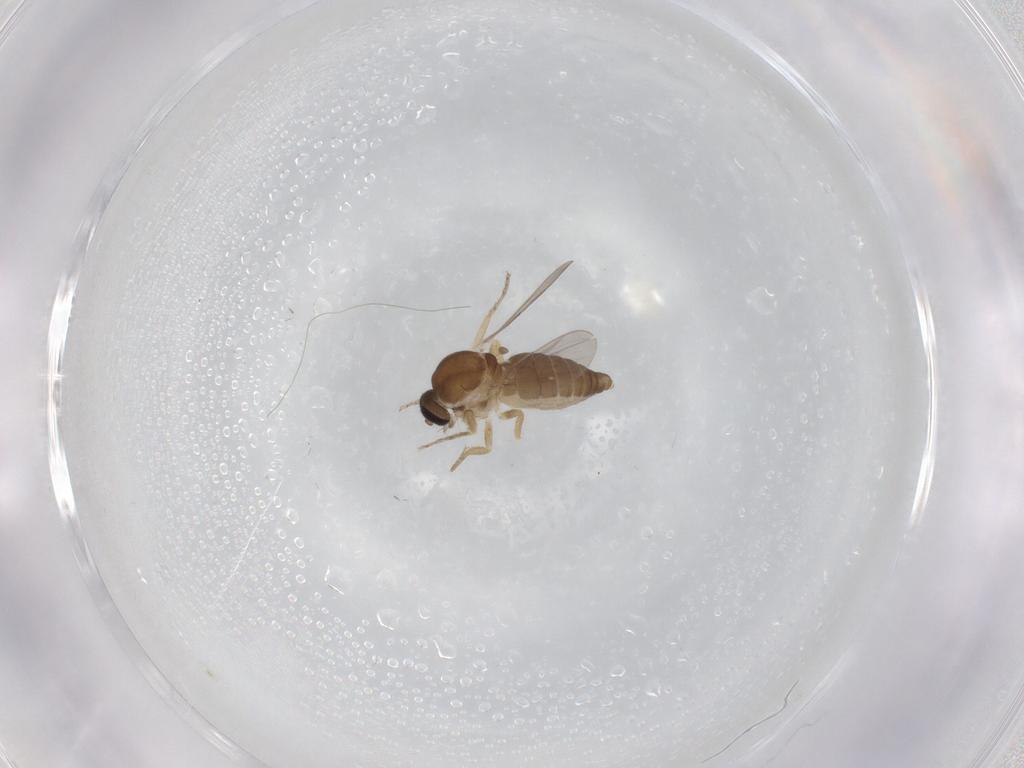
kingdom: Animalia
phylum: Arthropoda
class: Insecta
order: Diptera
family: Ceratopogonidae
